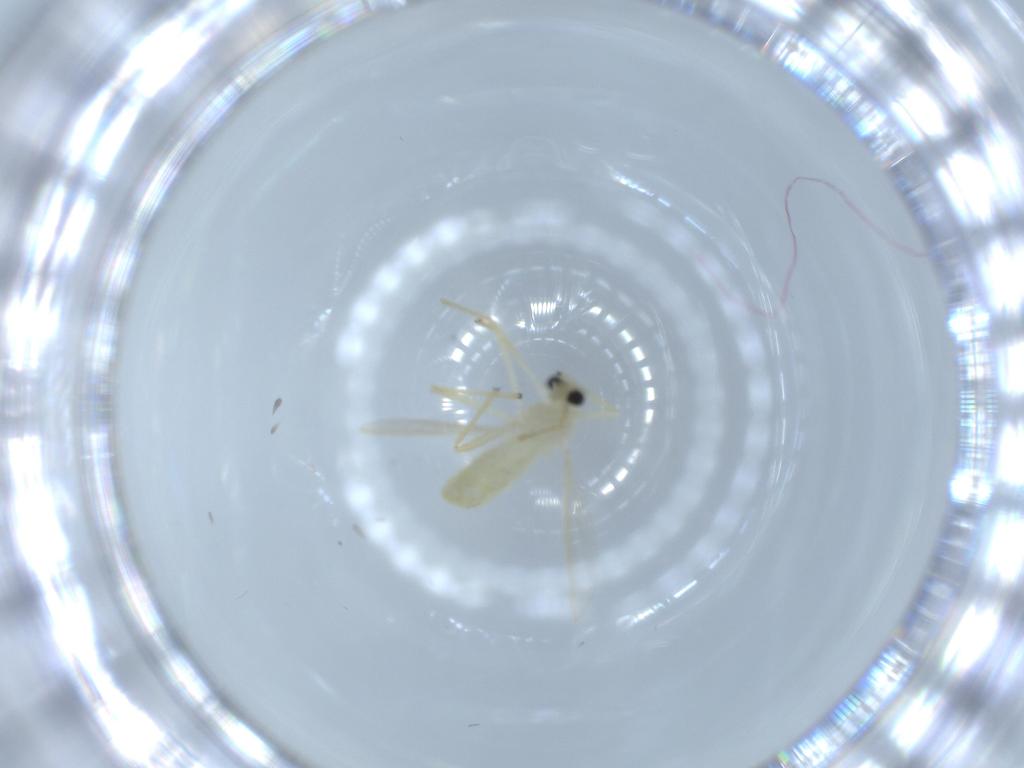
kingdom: Animalia
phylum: Arthropoda
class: Insecta
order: Diptera
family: Chironomidae
